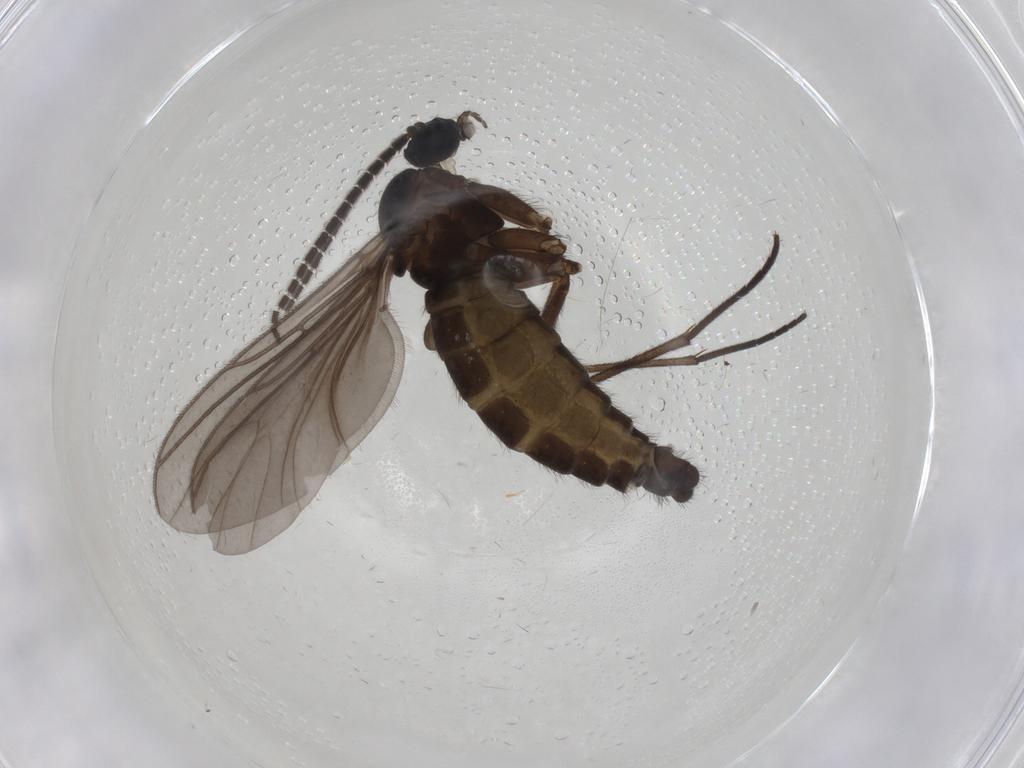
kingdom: Animalia
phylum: Arthropoda
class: Insecta
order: Diptera
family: Sciaridae
